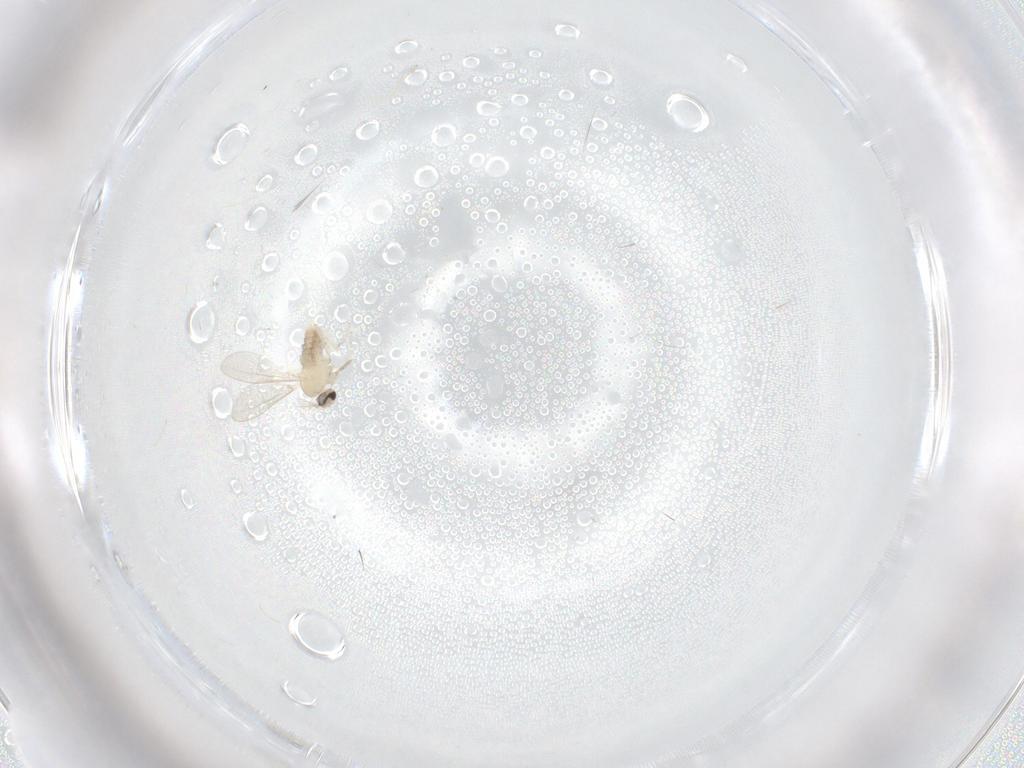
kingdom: Animalia
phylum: Arthropoda
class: Insecta
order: Diptera
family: Cecidomyiidae
